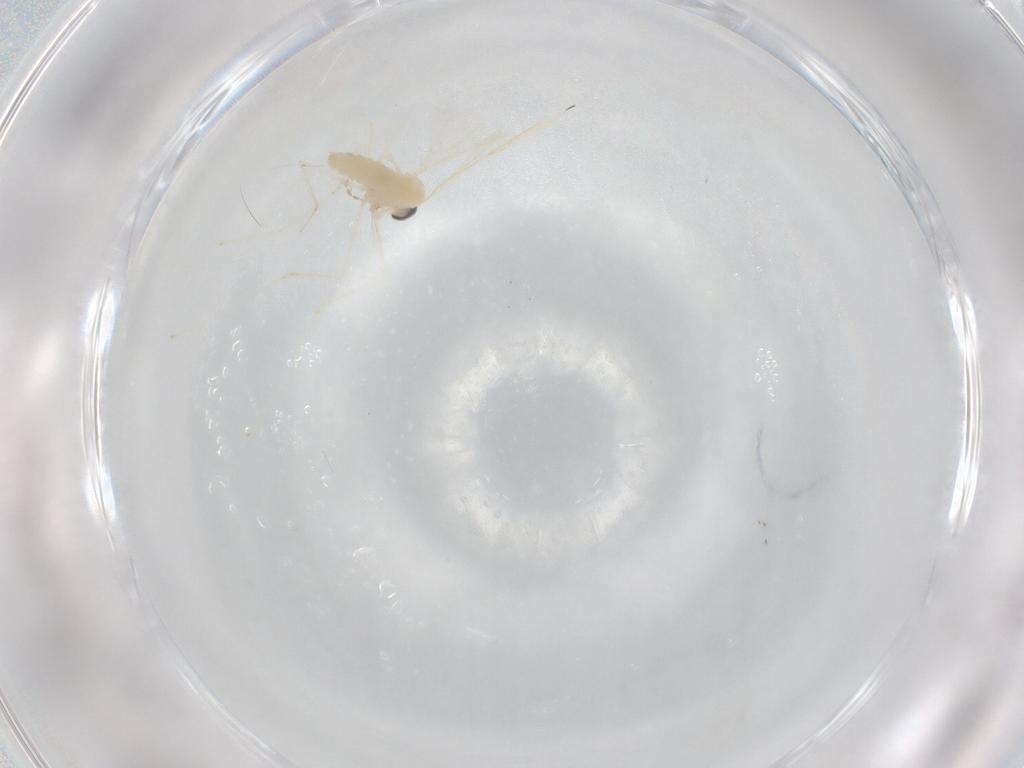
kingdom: Animalia
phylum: Arthropoda
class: Insecta
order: Diptera
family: Cecidomyiidae
